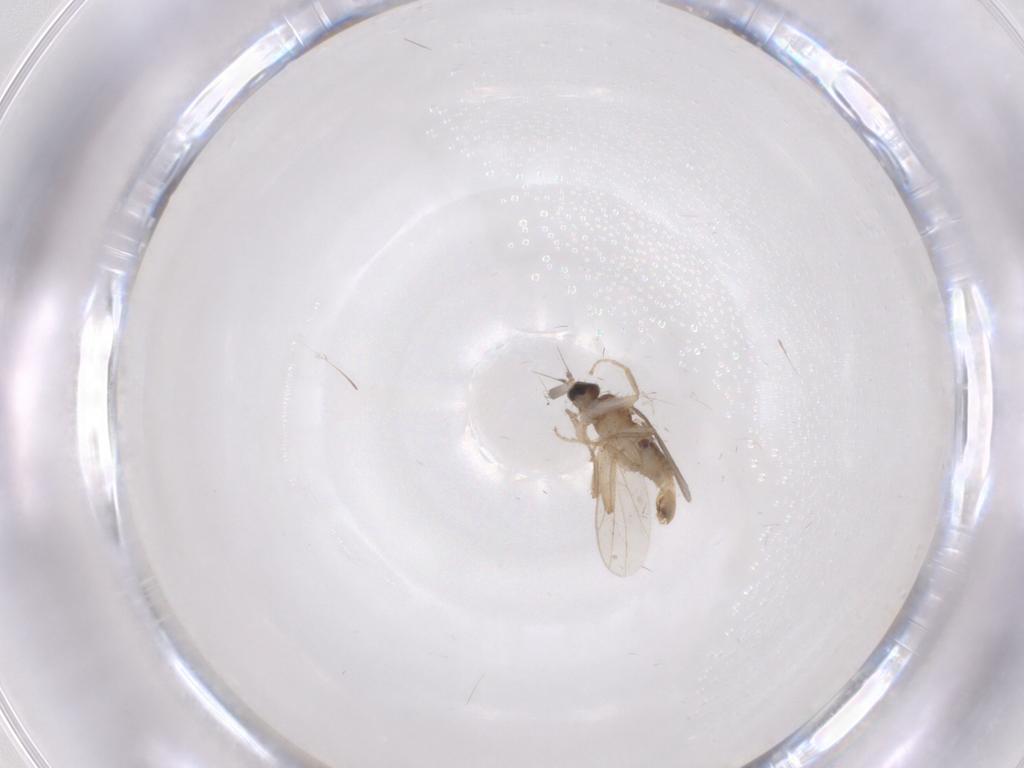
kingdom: Animalia
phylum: Arthropoda
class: Insecta
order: Diptera
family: Hybotidae
